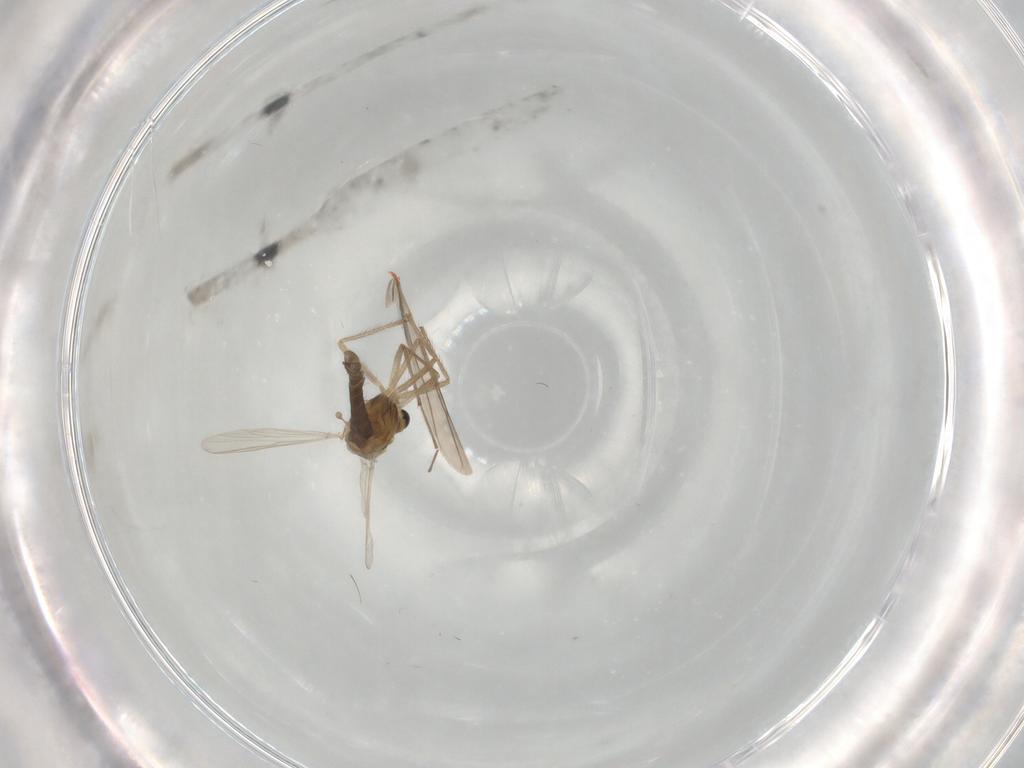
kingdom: Animalia
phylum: Arthropoda
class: Insecta
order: Diptera
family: Chironomidae
